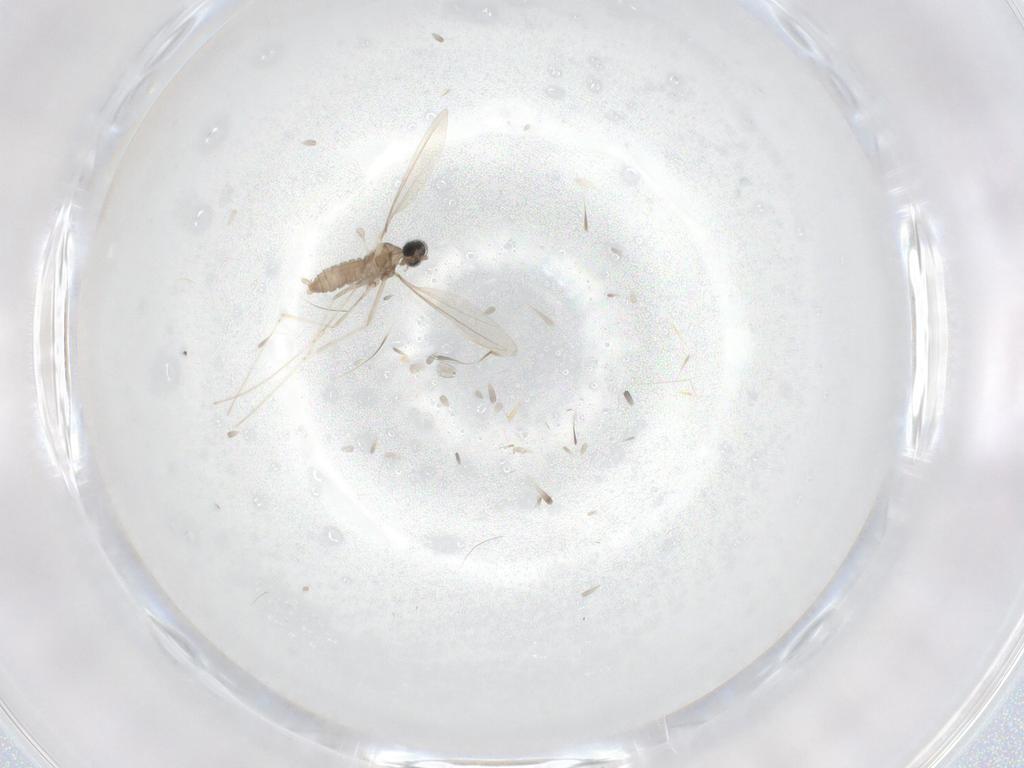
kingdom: Animalia
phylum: Arthropoda
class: Insecta
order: Diptera
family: Cecidomyiidae
